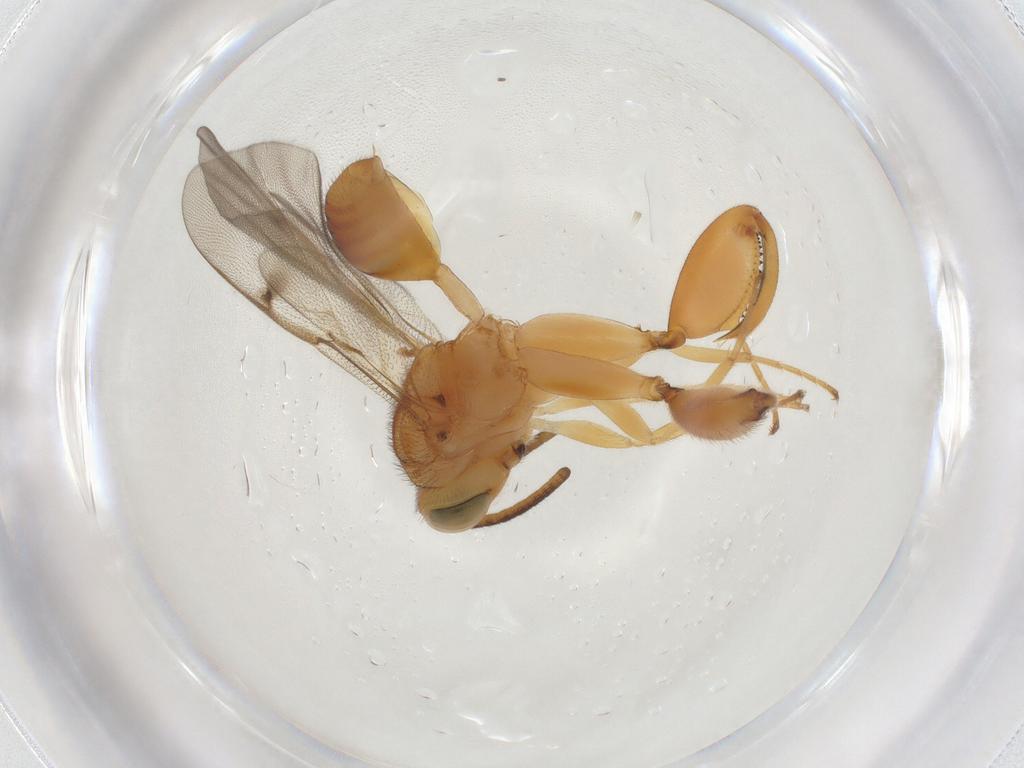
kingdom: Animalia
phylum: Arthropoda
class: Insecta
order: Hymenoptera
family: Chalcididae
